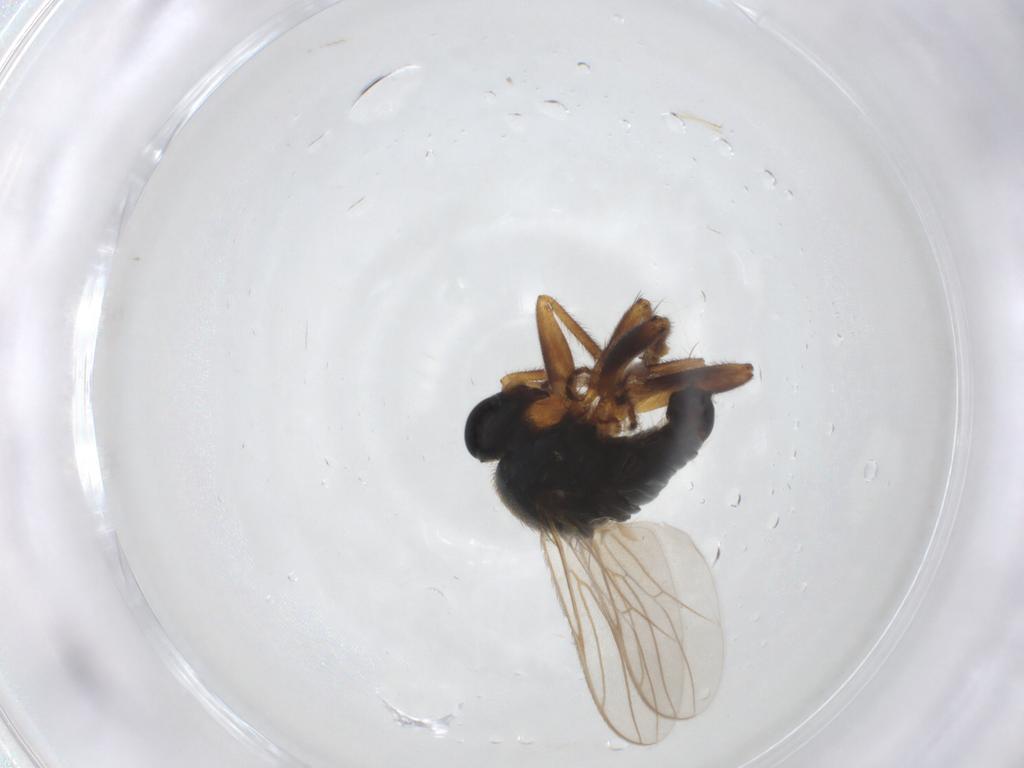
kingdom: Animalia
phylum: Arthropoda
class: Insecta
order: Diptera
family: Hybotidae
